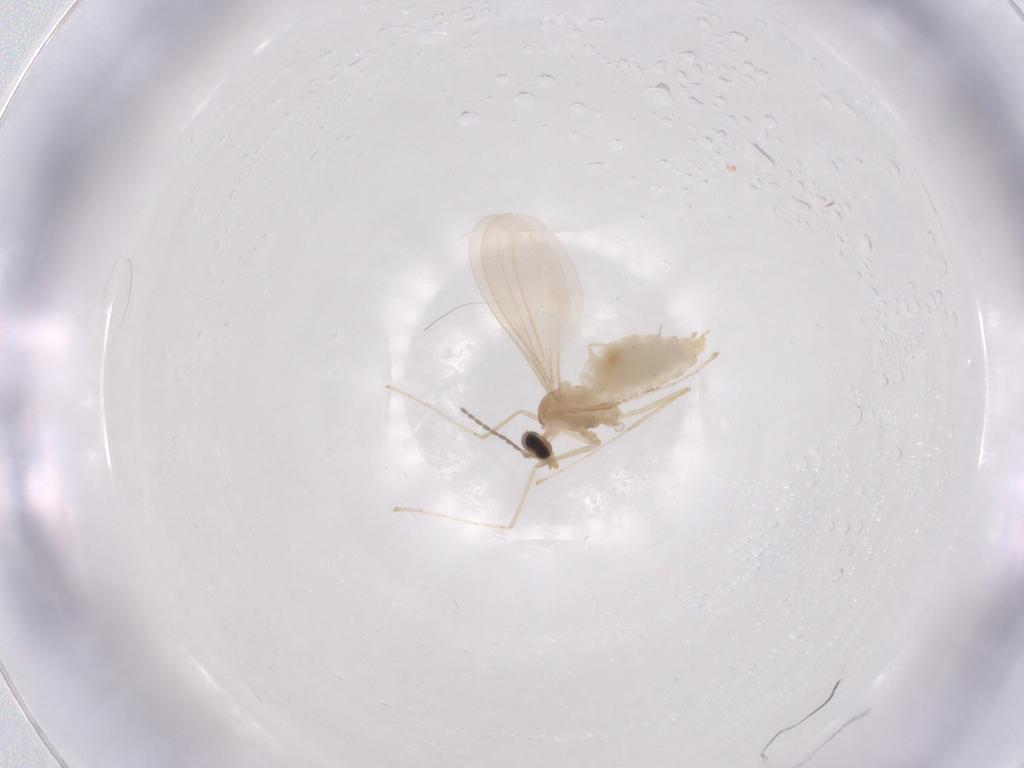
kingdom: Animalia
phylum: Arthropoda
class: Insecta
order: Diptera
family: Cecidomyiidae
